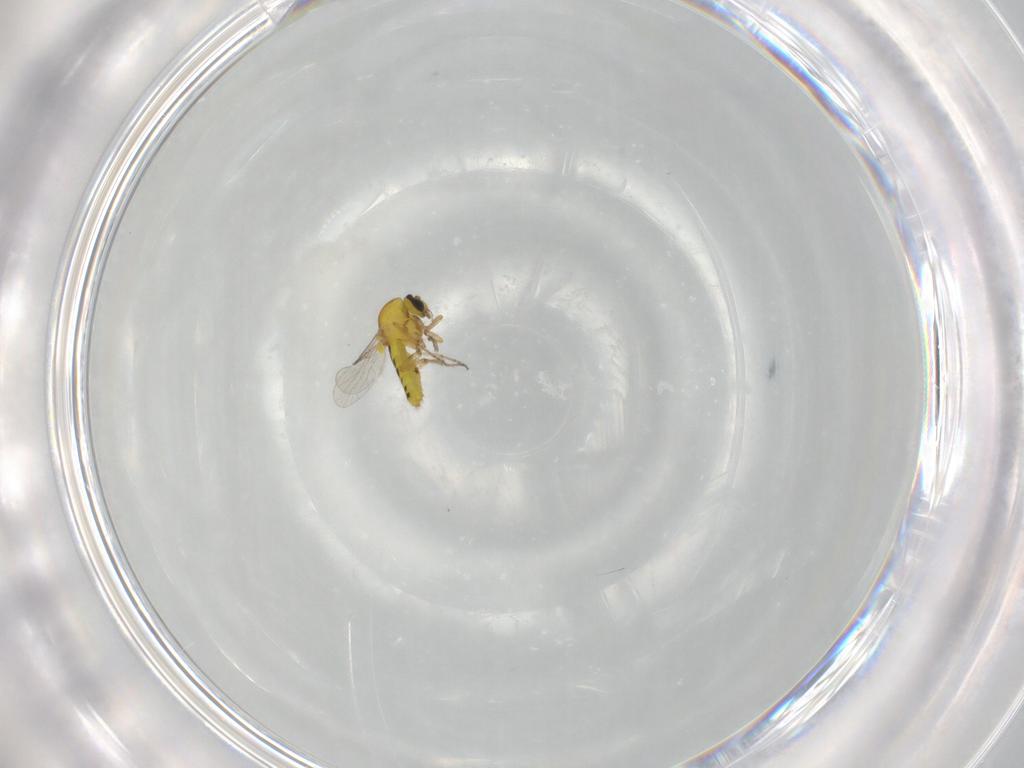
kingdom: Animalia
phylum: Arthropoda
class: Insecta
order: Diptera
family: Ceratopogonidae
